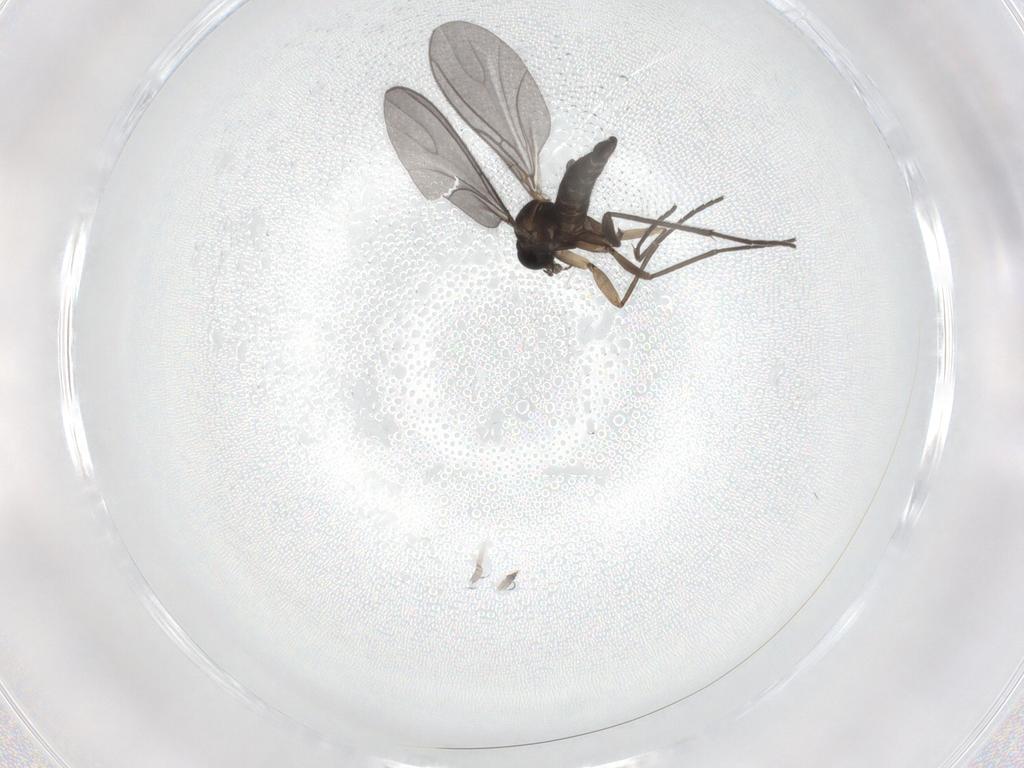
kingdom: Animalia
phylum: Arthropoda
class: Insecta
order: Diptera
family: Sciaridae
